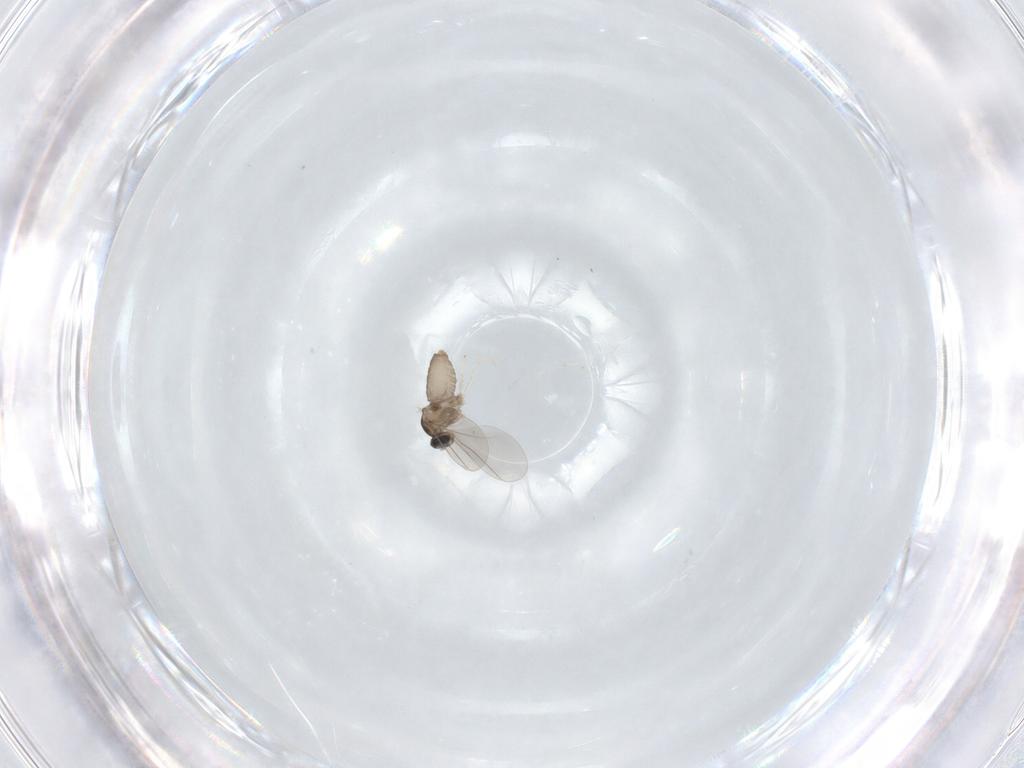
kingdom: Animalia
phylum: Arthropoda
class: Insecta
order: Diptera
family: Cecidomyiidae
